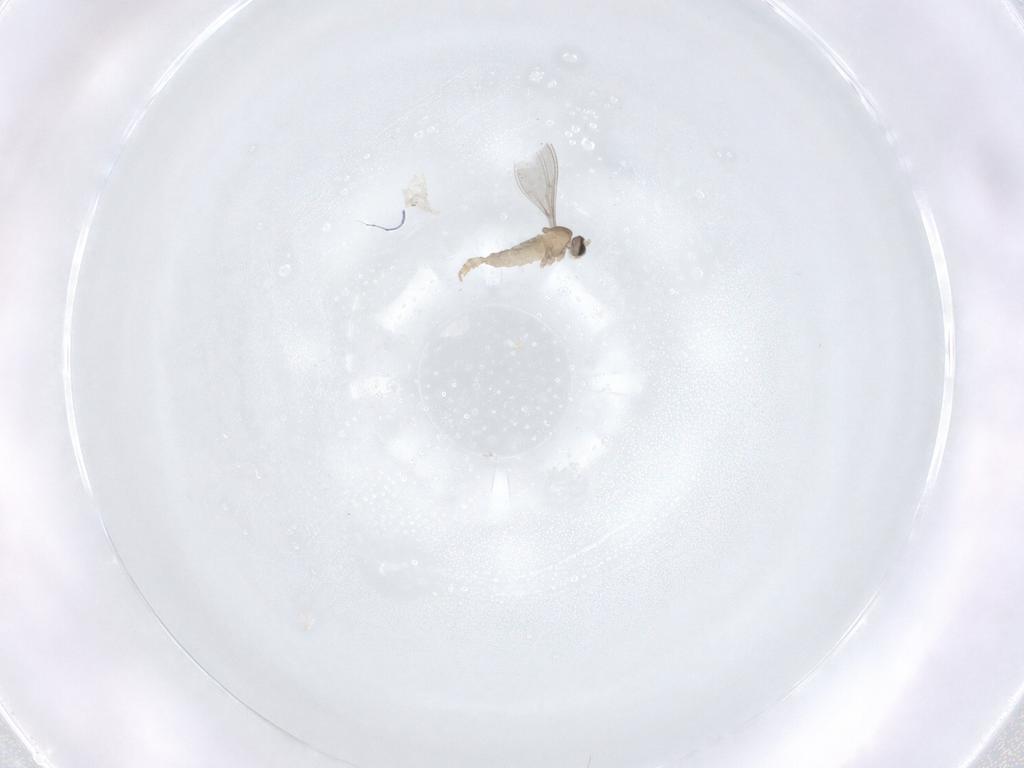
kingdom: Animalia
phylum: Arthropoda
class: Insecta
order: Diptera
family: Cecidomyiidae
